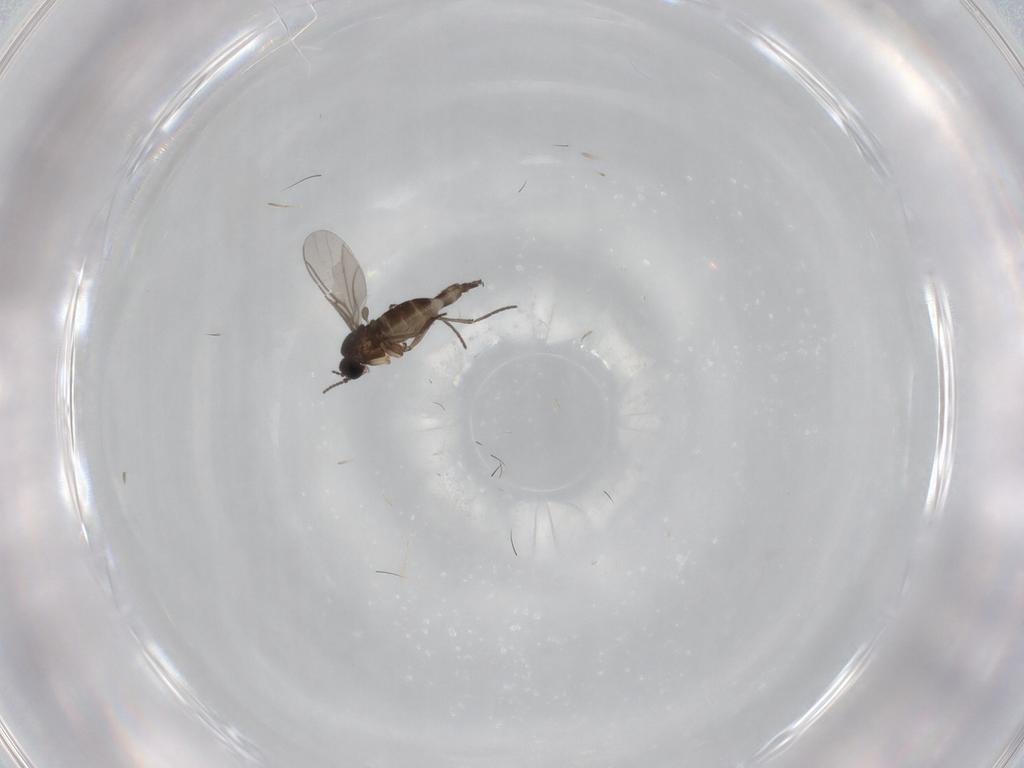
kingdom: Animalia
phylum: Arthropoda
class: Insecta
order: Diptera
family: Sciaridae
